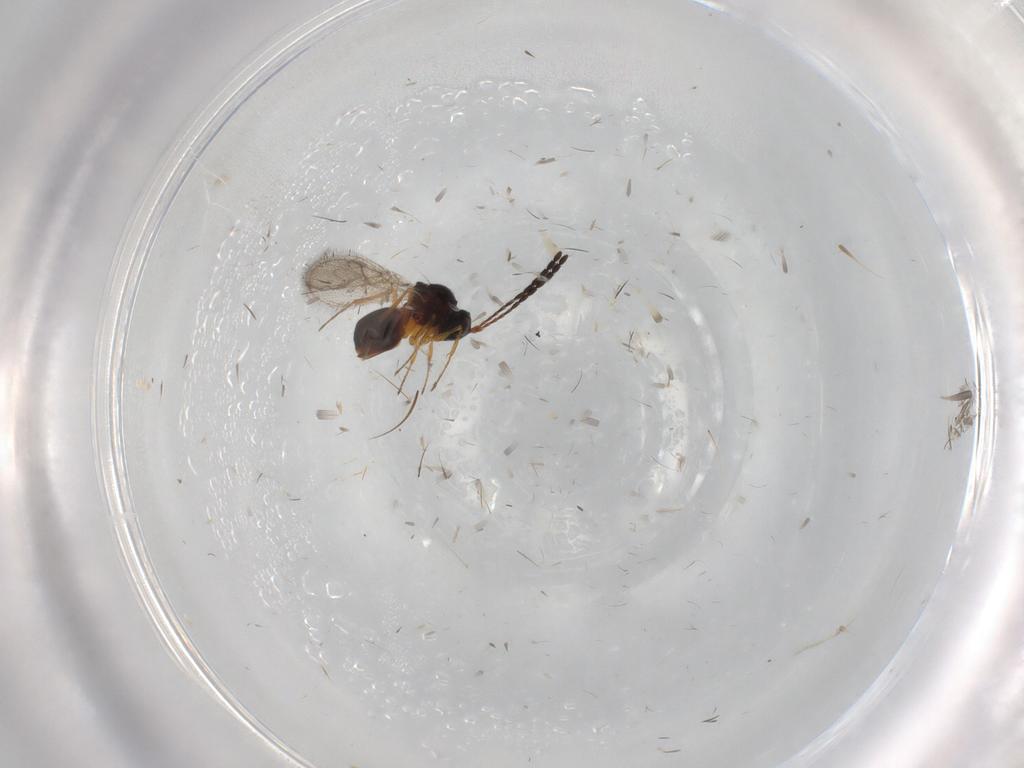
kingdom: Animalia
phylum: Arthropoda
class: Insecta
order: Hymenoptera
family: Figitidae
